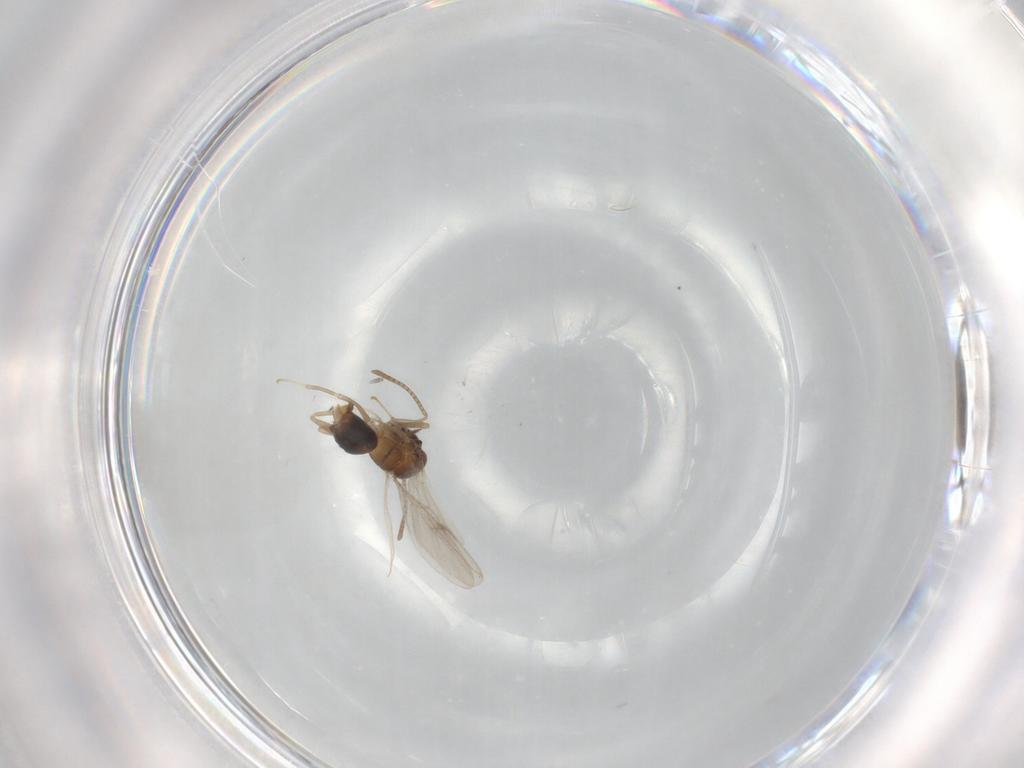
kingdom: Animalia
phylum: Arthropoda
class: Insecta
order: Hymenoptera
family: Formicidae
